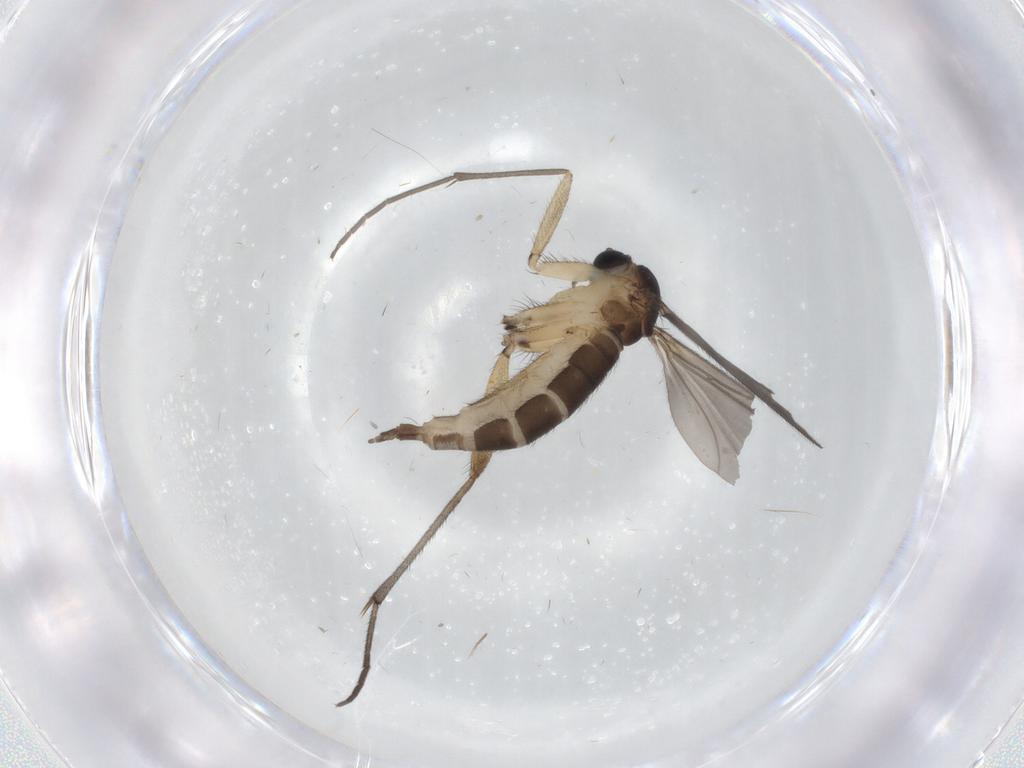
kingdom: Animalia
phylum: Arthropoda
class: Insecta
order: Diptera
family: Sciaridae
